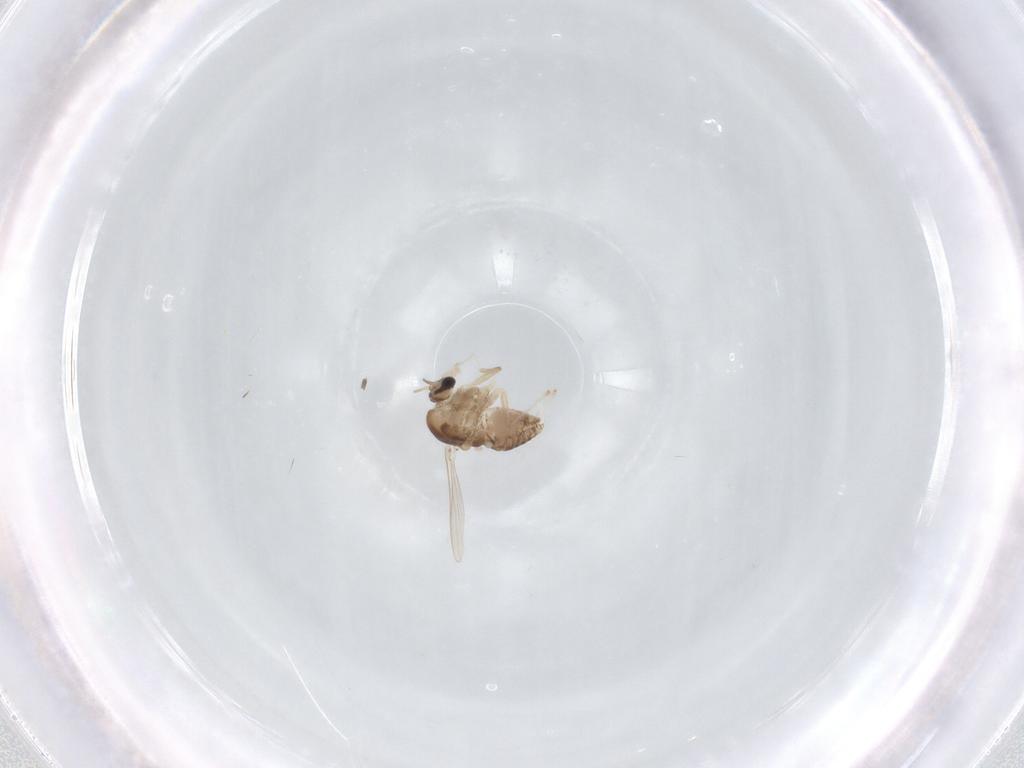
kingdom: Animalia
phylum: Arthropoda
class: Insecta
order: Diptera
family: Chironomidae
